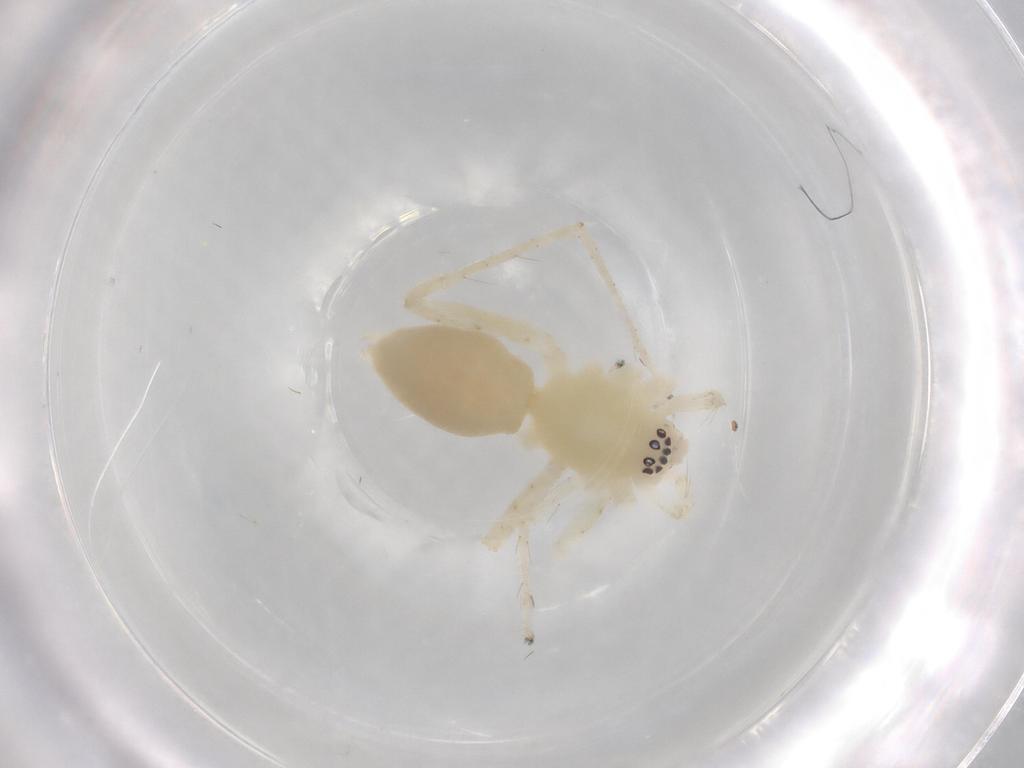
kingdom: Animalia
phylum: Arthropoda
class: Arachnida
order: Araneae
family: Anyphaenidae
